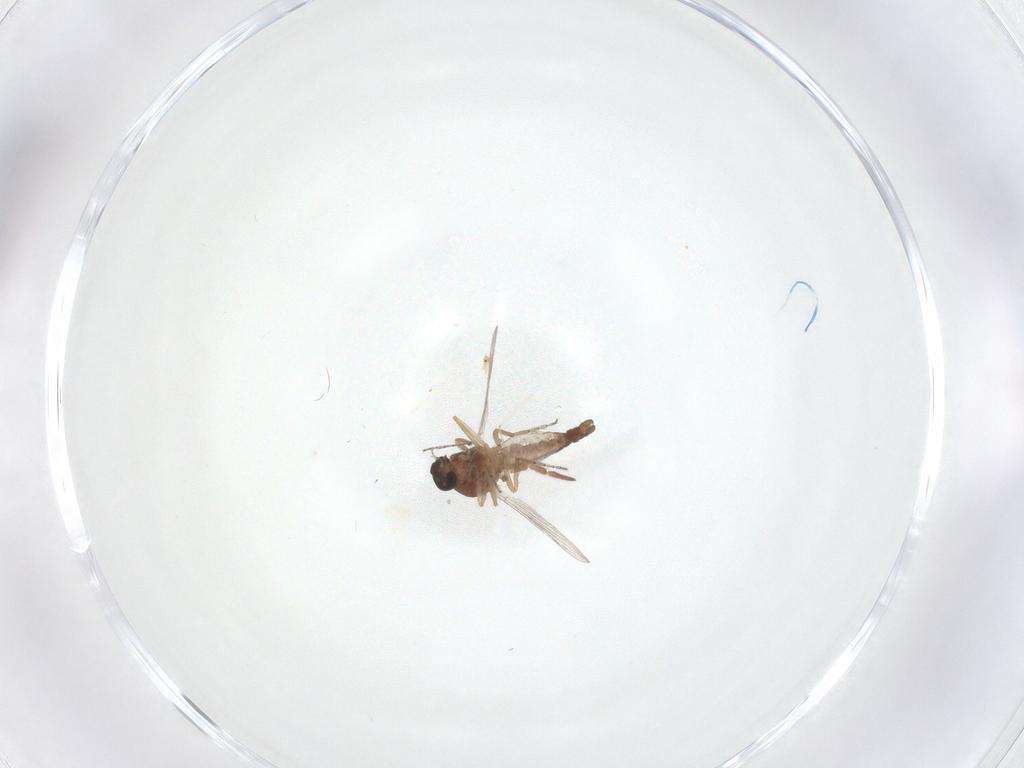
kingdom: Animalia
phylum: Arthropoda
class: Insecta
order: Diptera
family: Ceratopogonidae
